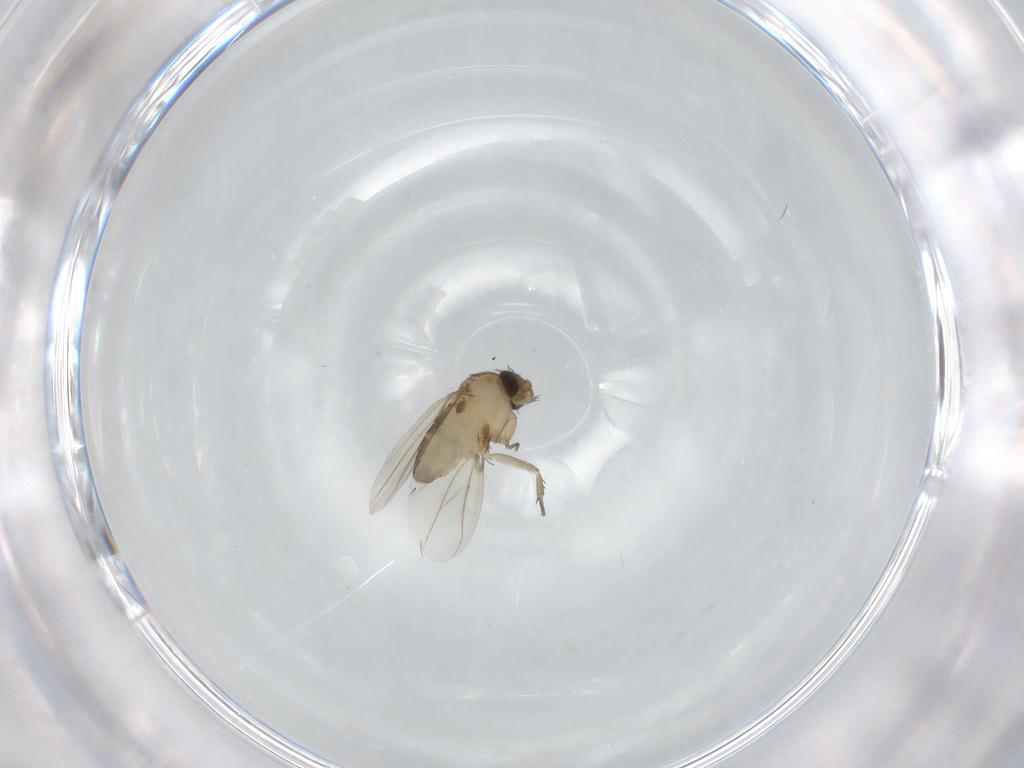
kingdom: Animalia
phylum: Arthropoda
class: Insecta
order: Diptera
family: Phoridae
